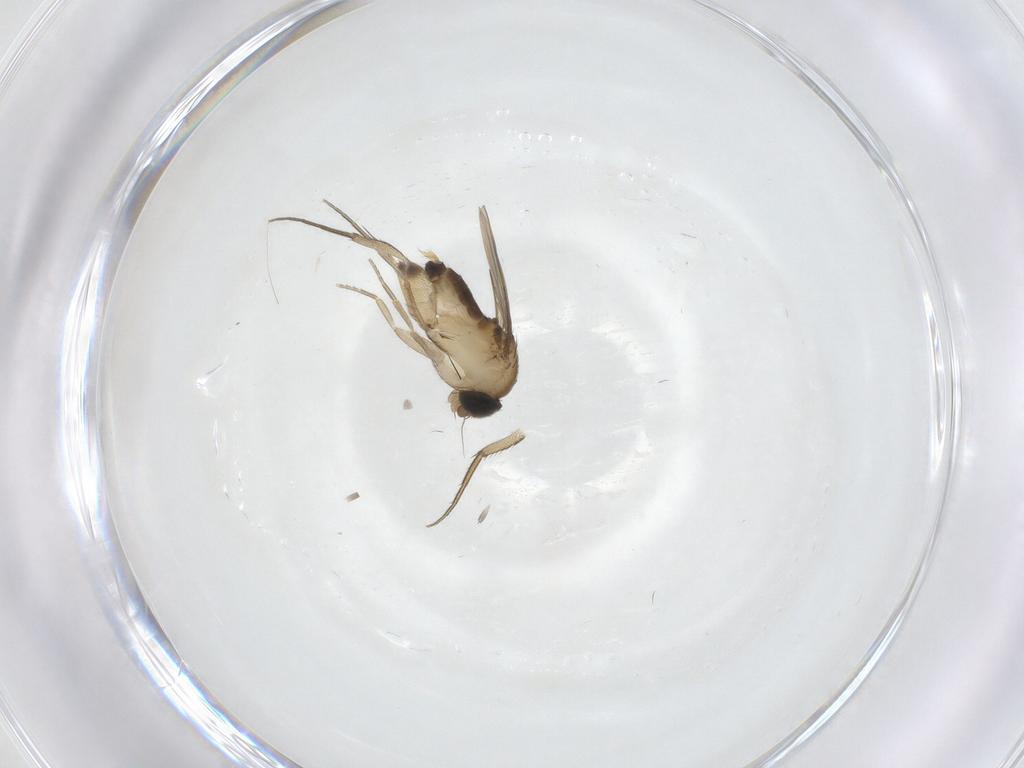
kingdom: Animalia
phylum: Arthropoda
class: Insecta
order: Diptera
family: Phoridae
